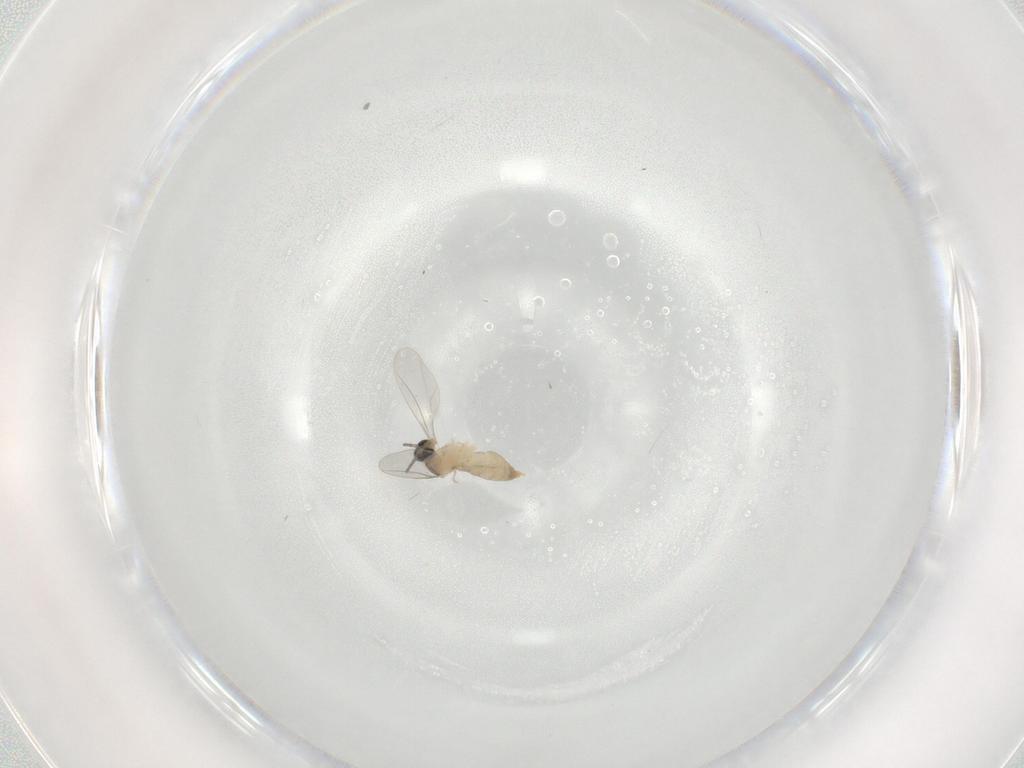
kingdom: Animalia
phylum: Arthropoda
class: Insecta
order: Diptera
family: Cecidomyiidae
